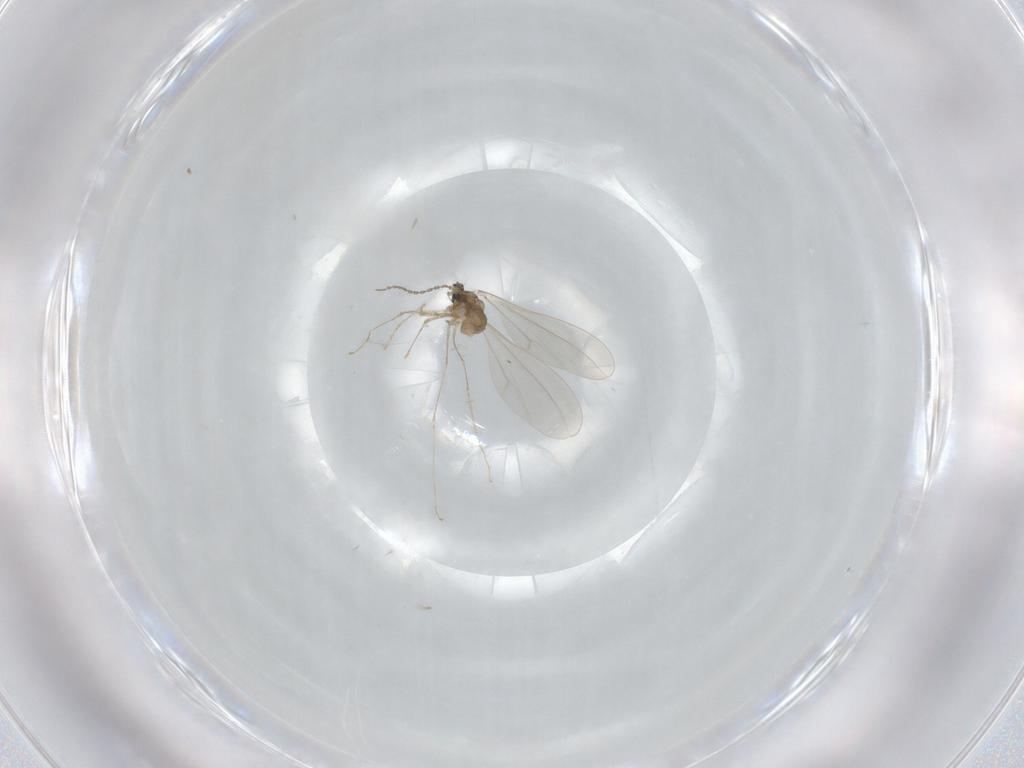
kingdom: Animalia
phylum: Arthropoda
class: Insecta
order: Diptera
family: Cecidomyiidae
